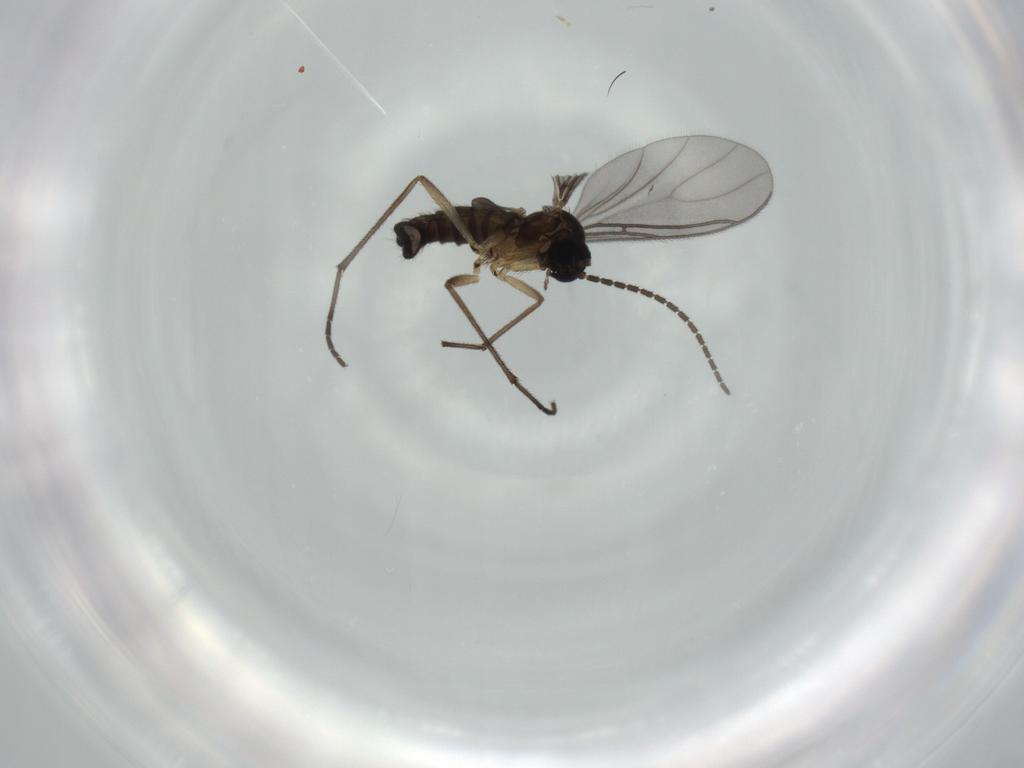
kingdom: Animalia
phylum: Arthropoda
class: Insecta
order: Diptera
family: Sciaridae
